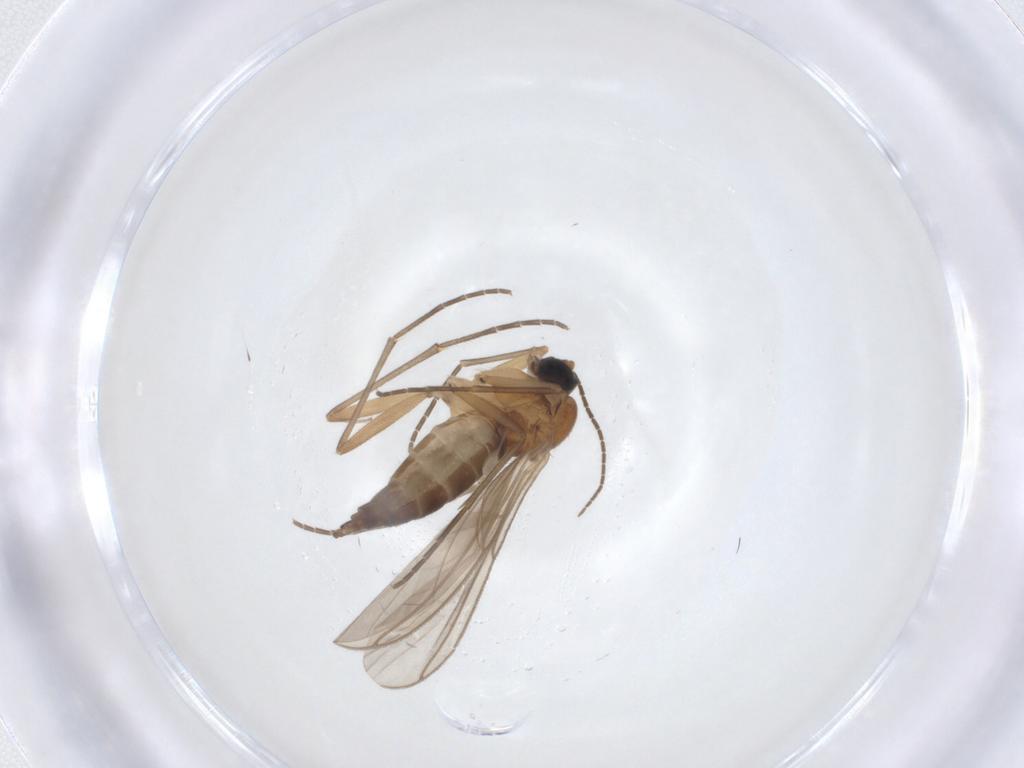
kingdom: Animalia
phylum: Arthropoda
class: Insecta
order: Diptera
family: Sciaridae
